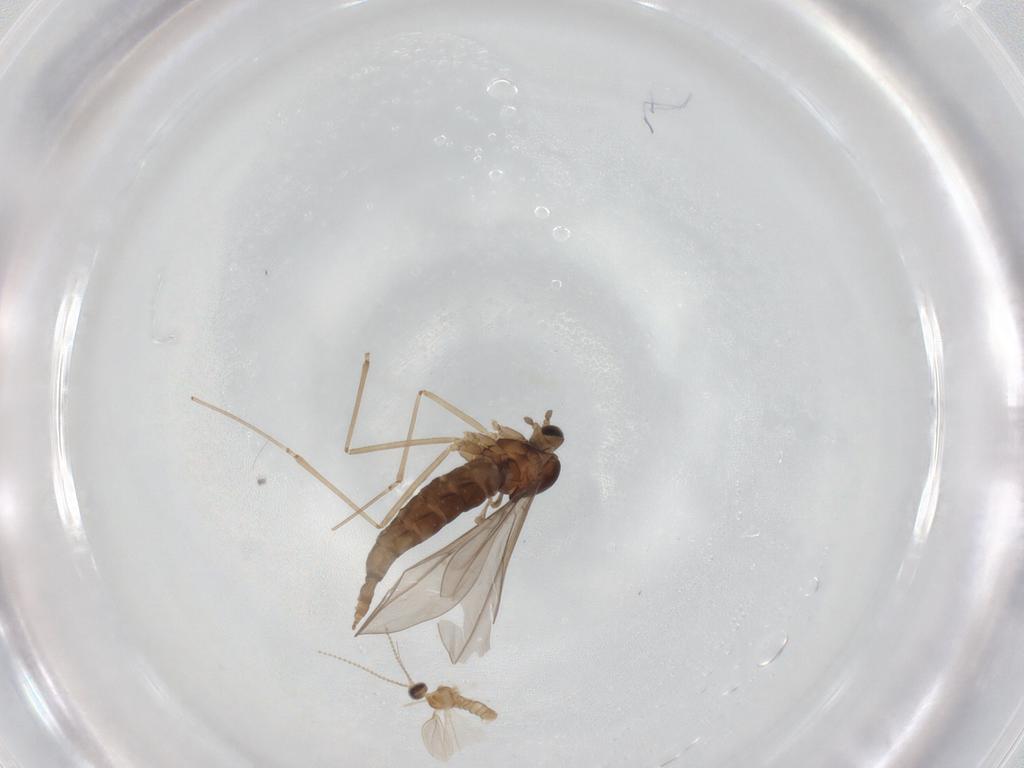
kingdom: Animalia
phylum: Arthropoda
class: Insecta
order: Diptera
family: Cecidomyiidae
